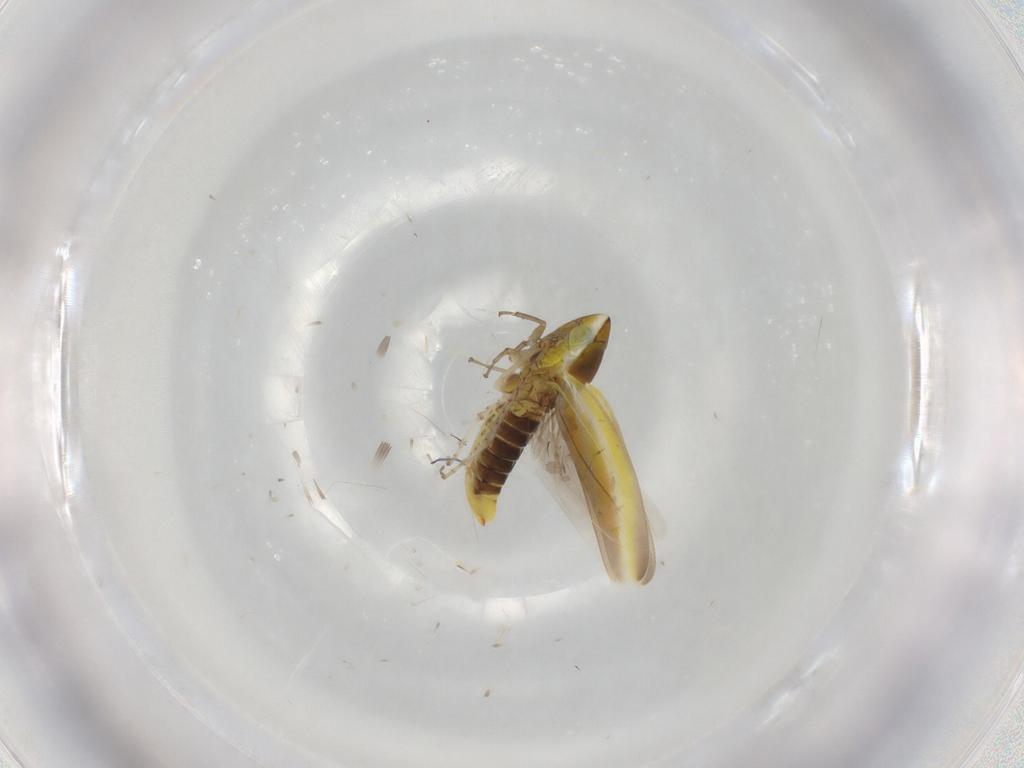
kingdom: Animalia
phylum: Arthropoda
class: Insecta
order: Hemiptera
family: Cicadellidae
